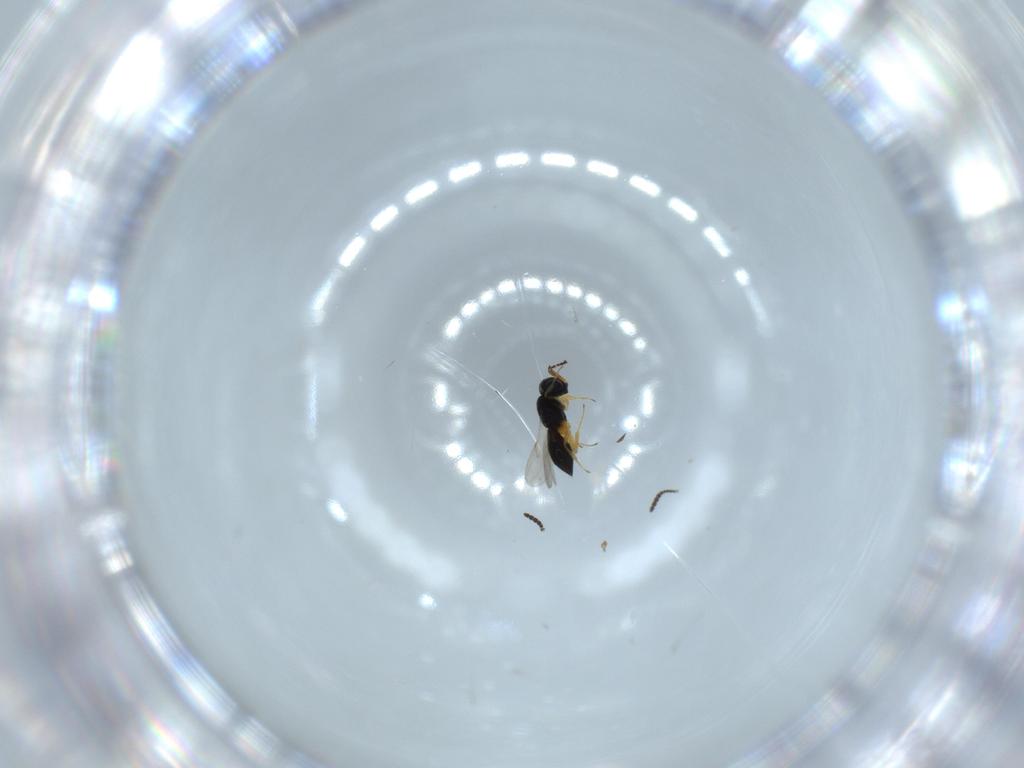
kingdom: Animalia
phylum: Arthropoda
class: Insecta
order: Hymenoptera
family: Scelionidae
